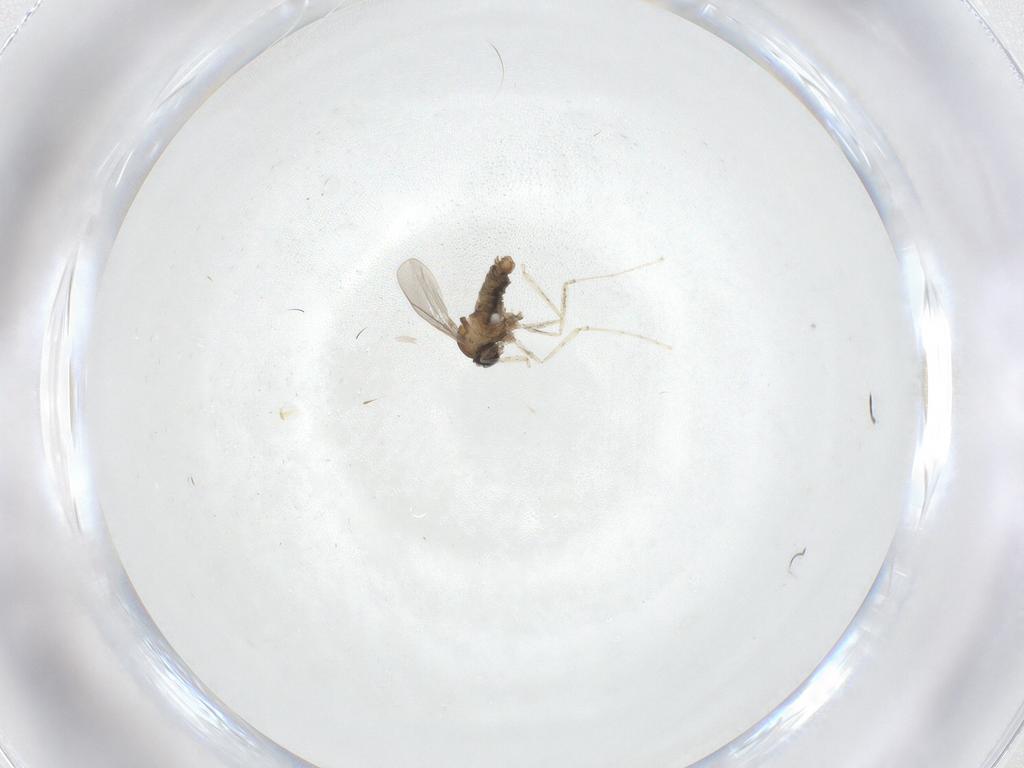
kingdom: Animalia
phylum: Arthropoda
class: Insecta
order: Diptera
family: Cecidomyiidae
